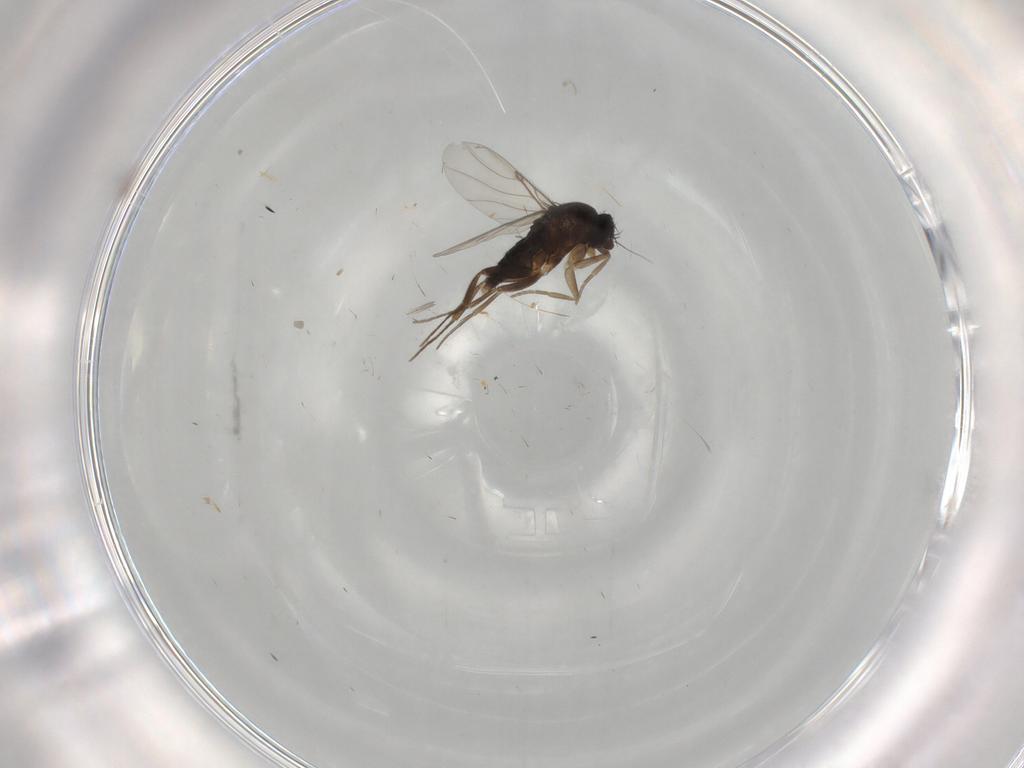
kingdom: Animalia
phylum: Arthropoda
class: Insecta
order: Diptera
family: Phoridae
